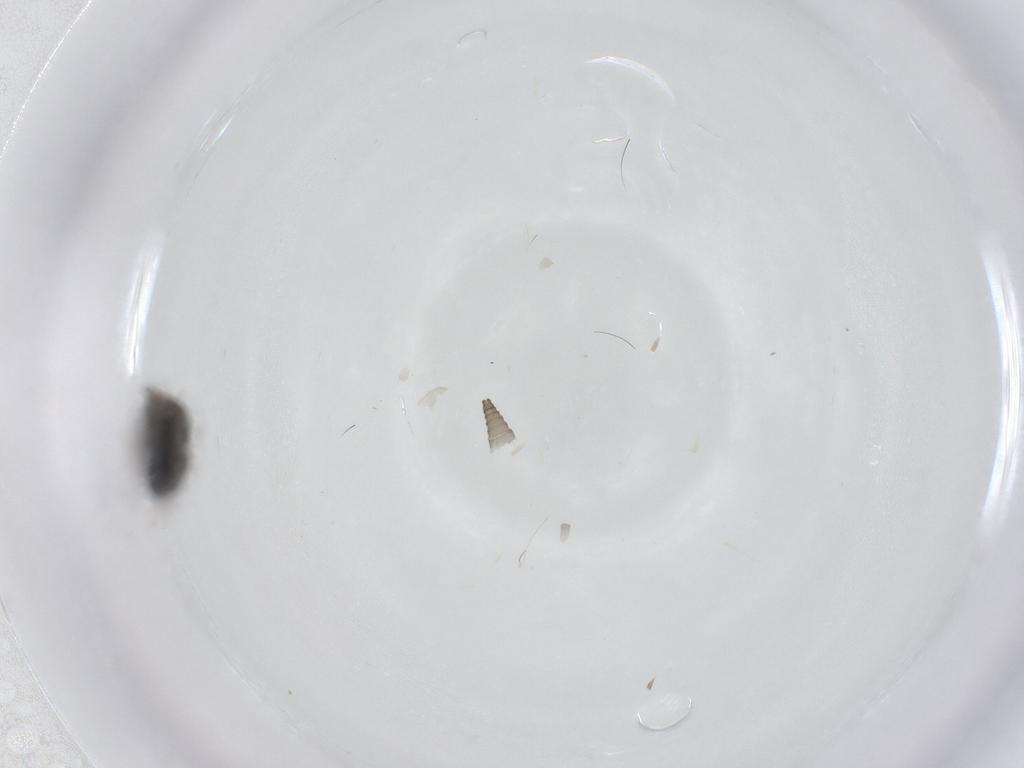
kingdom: Animalia
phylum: Arthropoda
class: Insecta
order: Diptera
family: Sphaeroceridae
